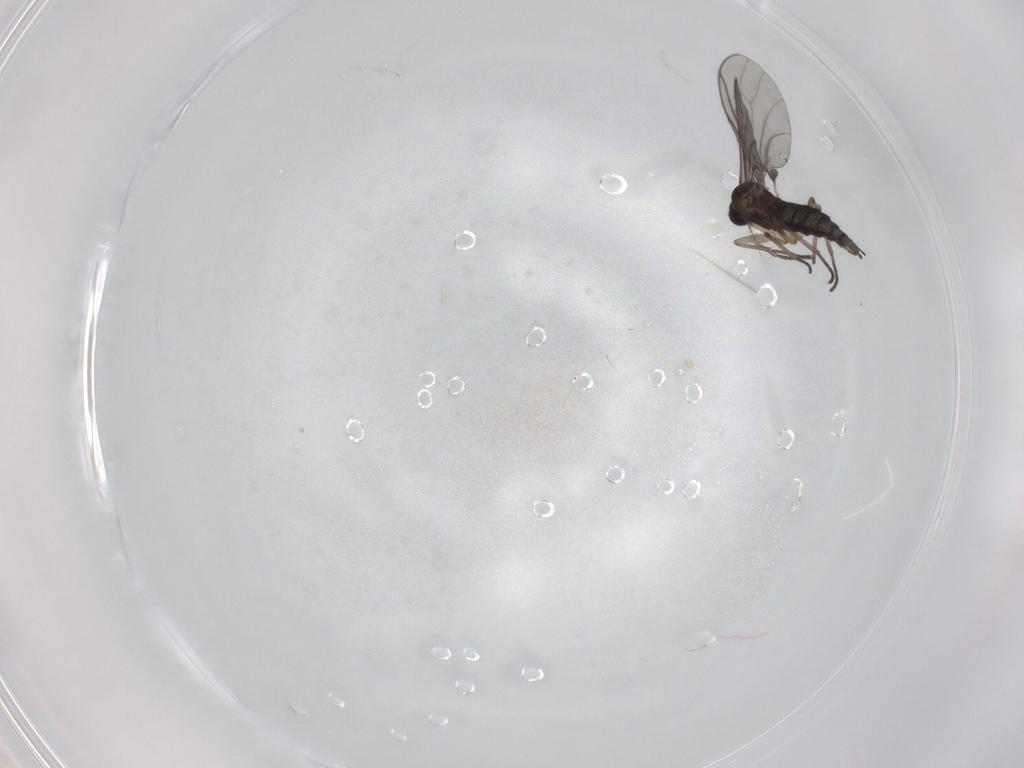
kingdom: Animalia
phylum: Arthropoda
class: Insecta
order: Diptera
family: Sciaridae
